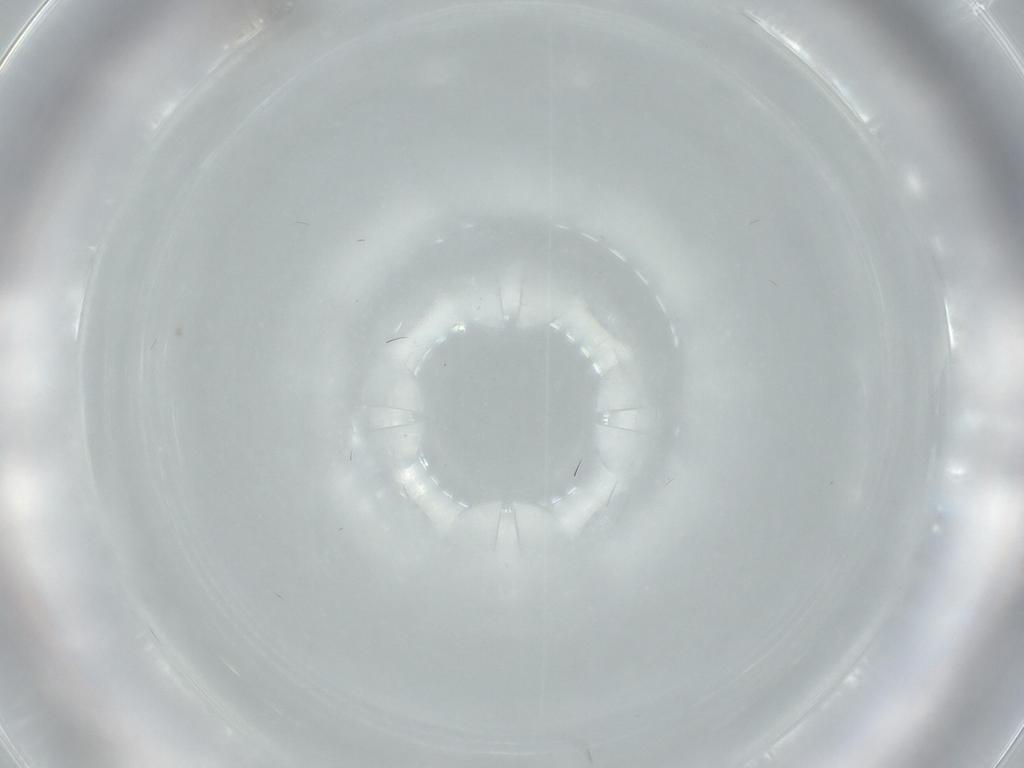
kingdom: Animalia
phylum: Arthropoda
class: Insecta
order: Hymenoptera
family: Scelionidae
